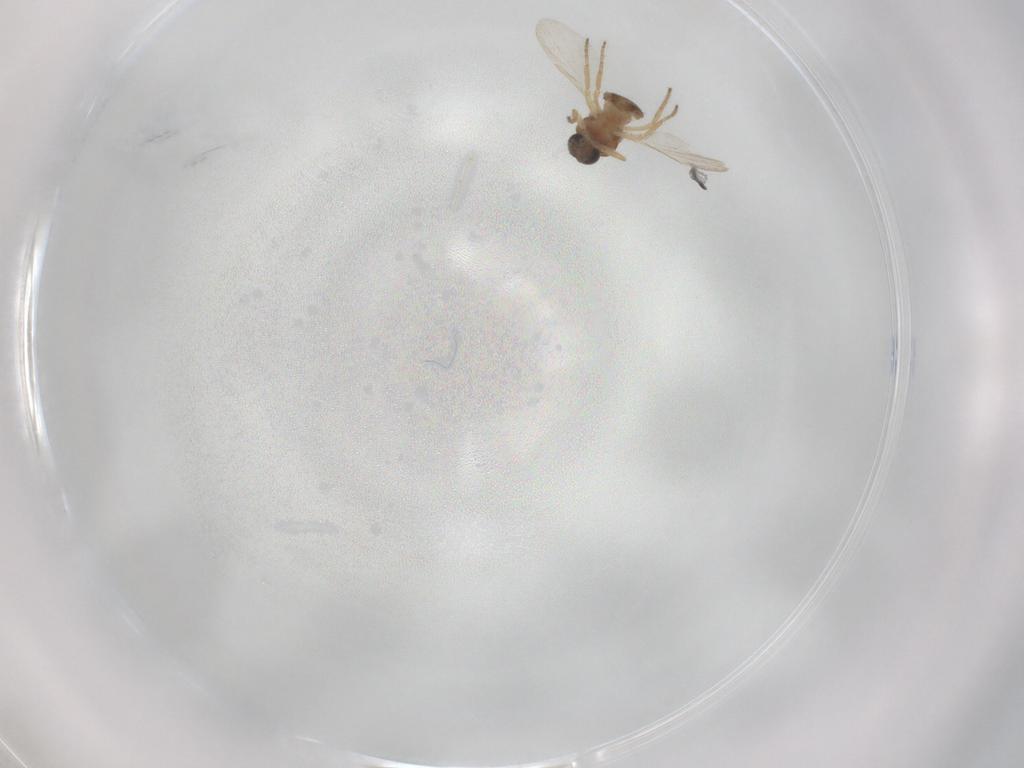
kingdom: Animalia
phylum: Arthropoda
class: Insecta
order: Diptera
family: Ceratopogonidae
